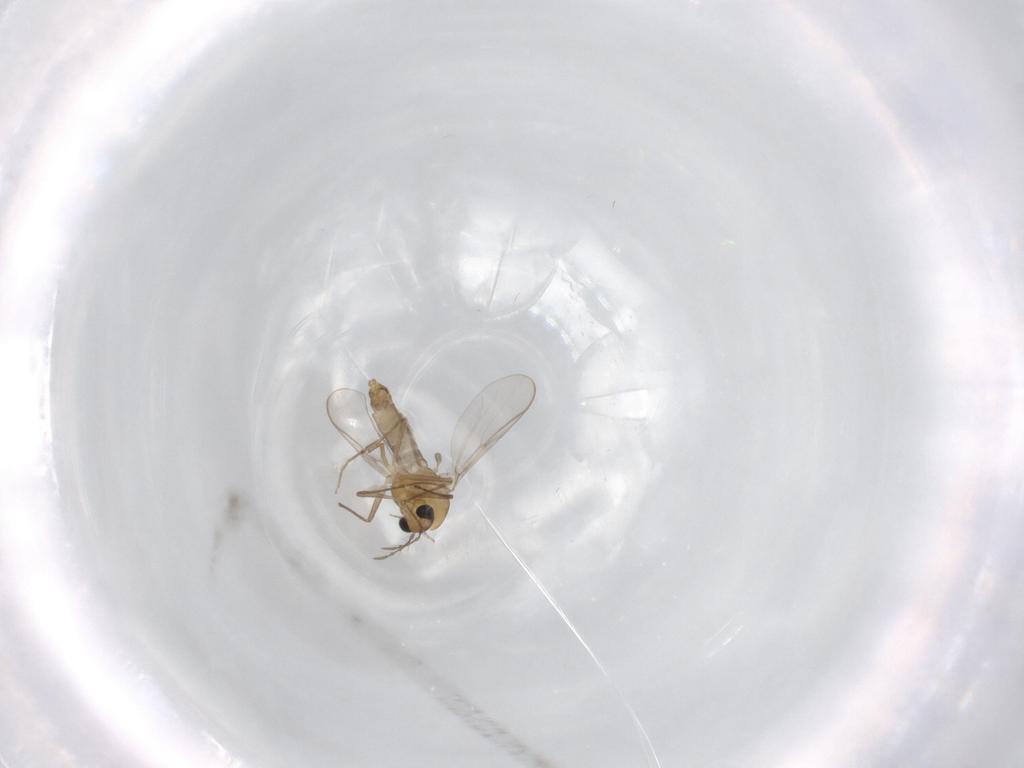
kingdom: Animalia
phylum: Arthropoda
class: Insecta
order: Diptera
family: Chironomidae
